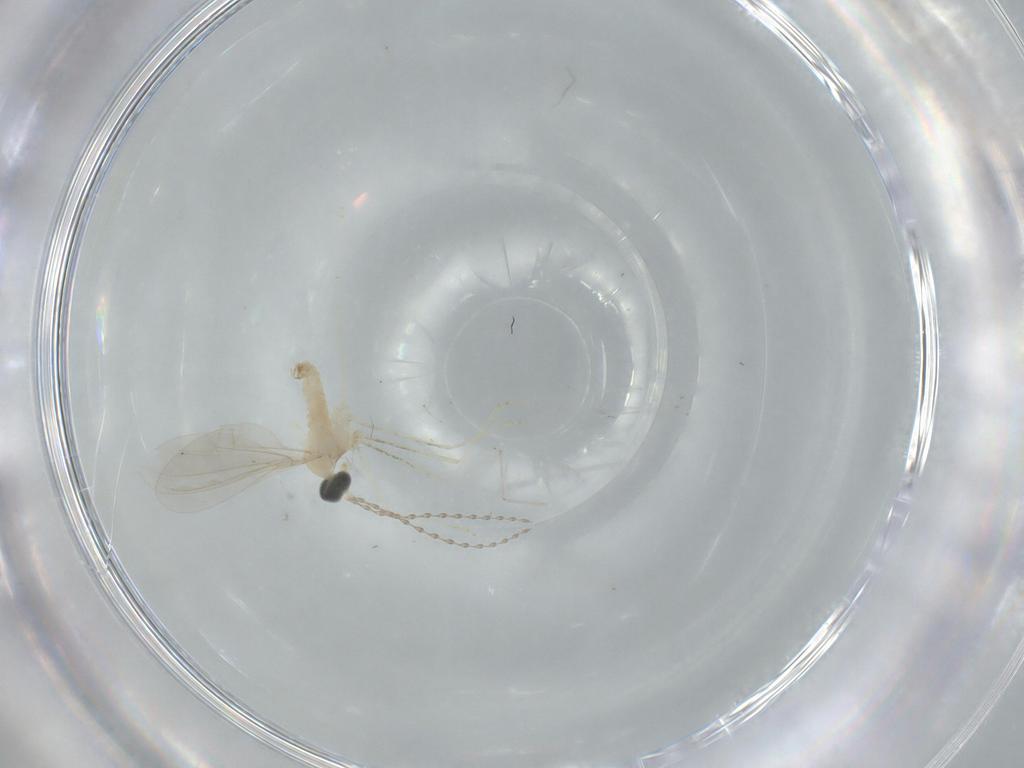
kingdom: Animalia
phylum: Arthropoda
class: Insecta
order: Diptera
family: Cecidomyiidae
